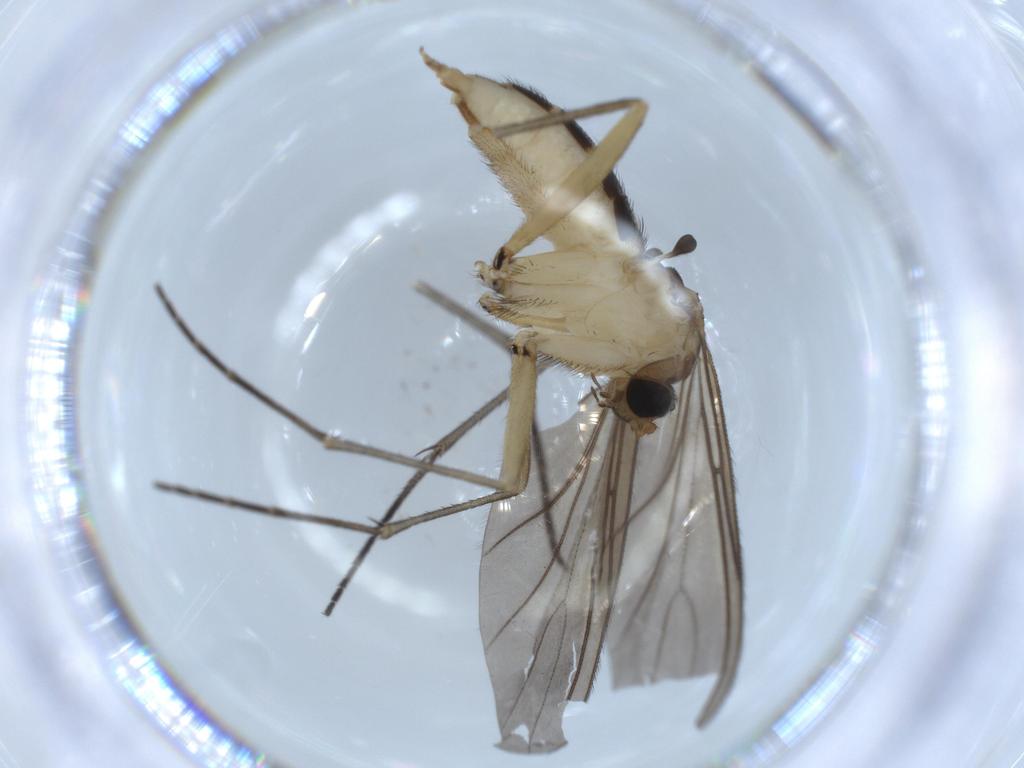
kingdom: Animalia
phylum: Arthropoda
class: Insecta
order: Diptera
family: Sciaridae
